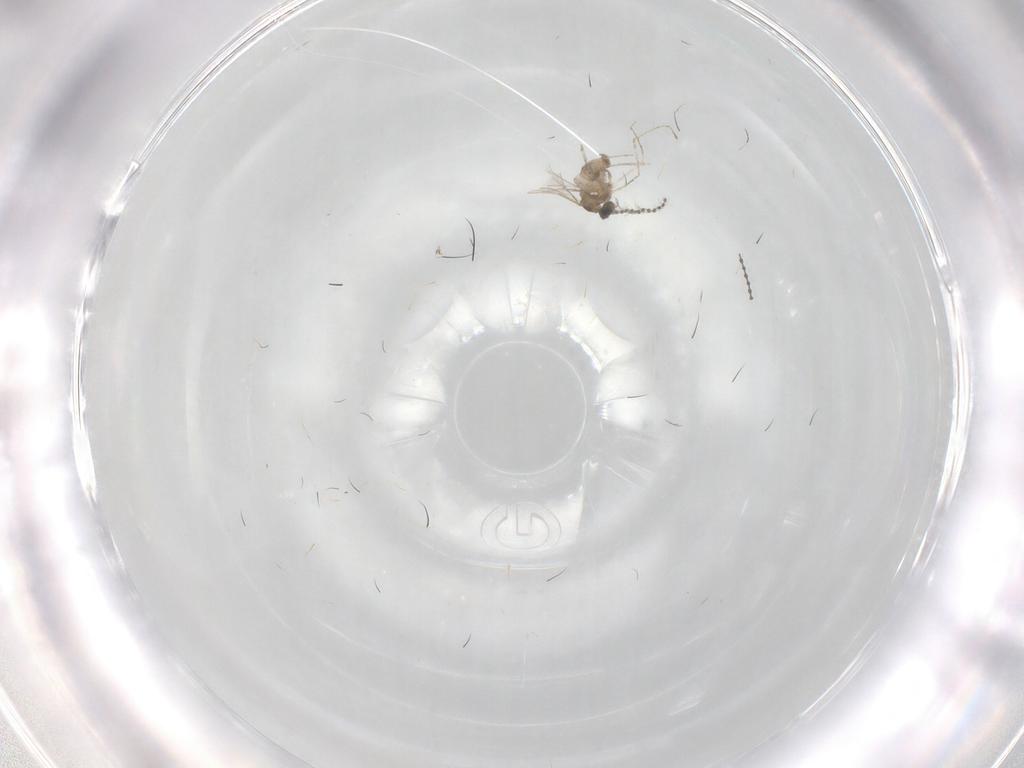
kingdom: Animalia
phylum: Arthropoda
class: Insecta
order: Diptera
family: Cecidomyiidae
